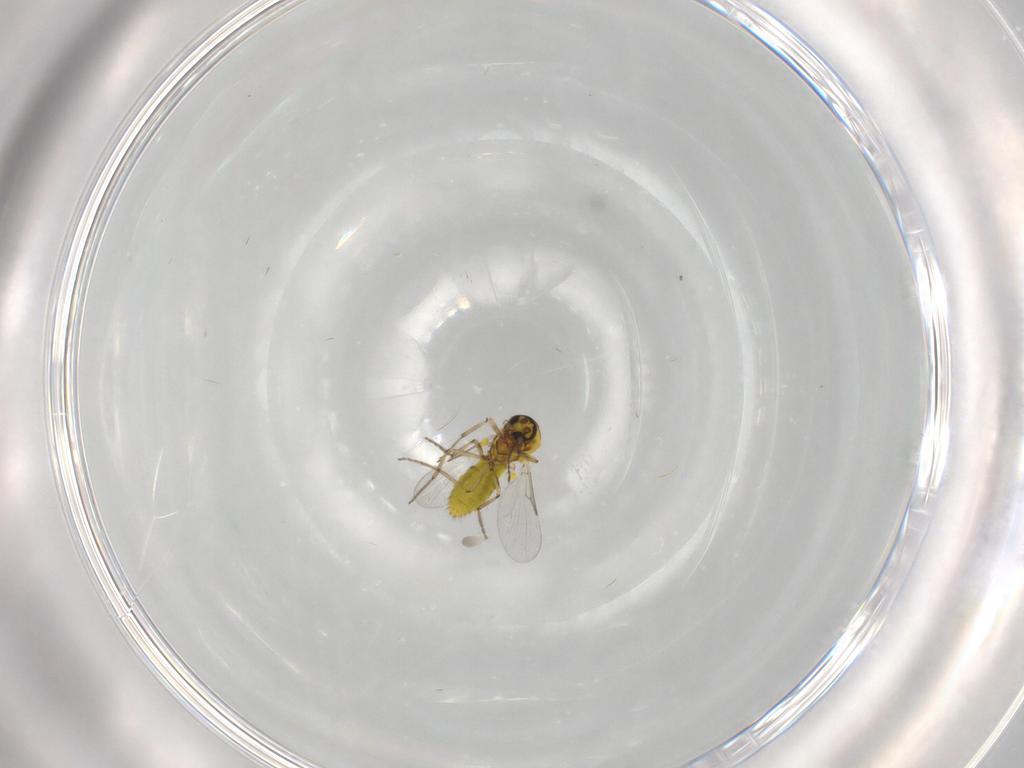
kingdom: Animalia
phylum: Arthropoda
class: Insecta
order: Diptera
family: Ceratopogonidae
